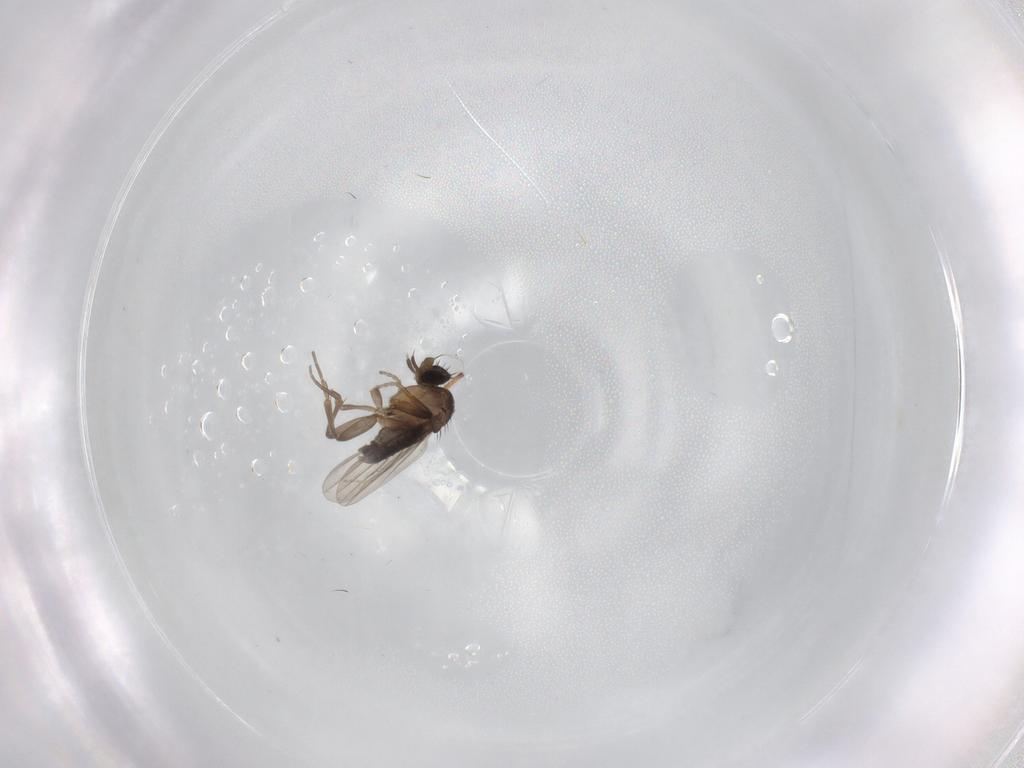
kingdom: Animalia
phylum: Arthropoda
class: Insecta
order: Diptera
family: Phoridae
